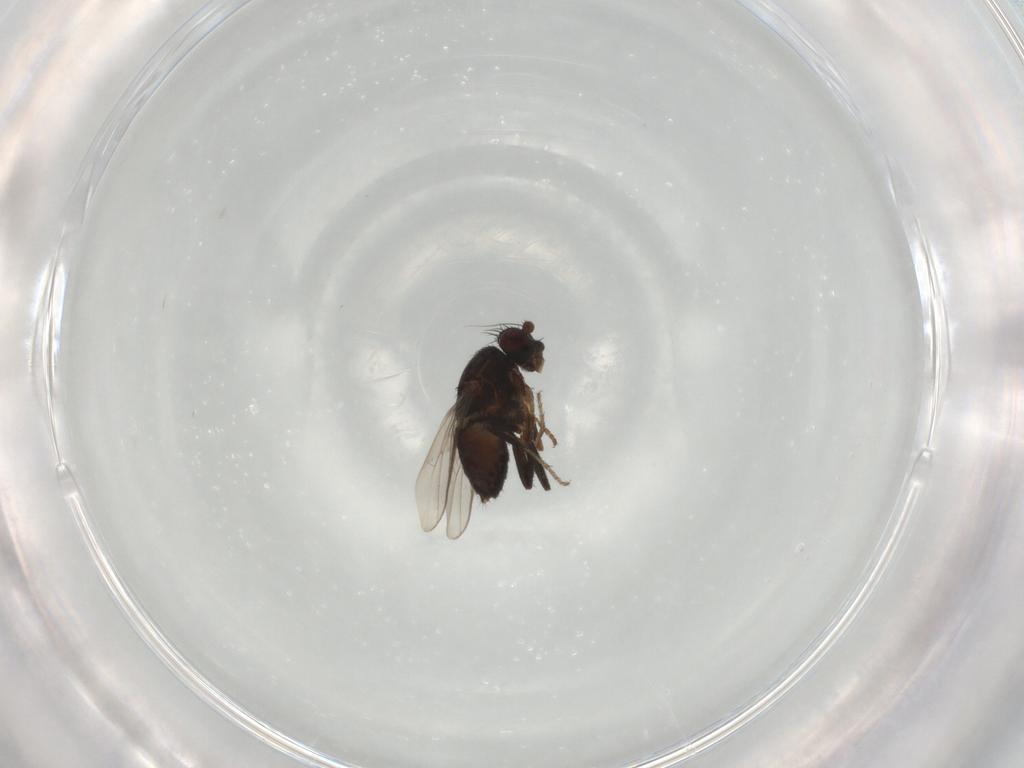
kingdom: Animalia
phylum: Arthropoda
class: Insecta
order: Diptera
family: Sphaeroceridae
